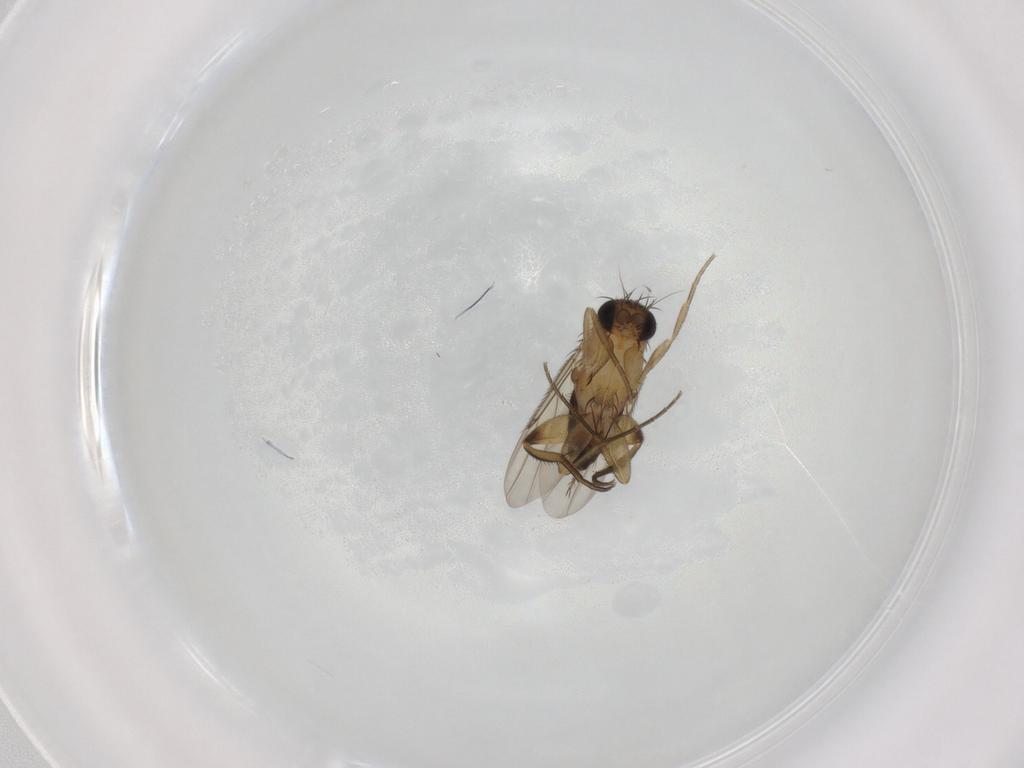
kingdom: Animalia
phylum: Arthropoda
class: Insecta
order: Diptera
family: Phoridae
